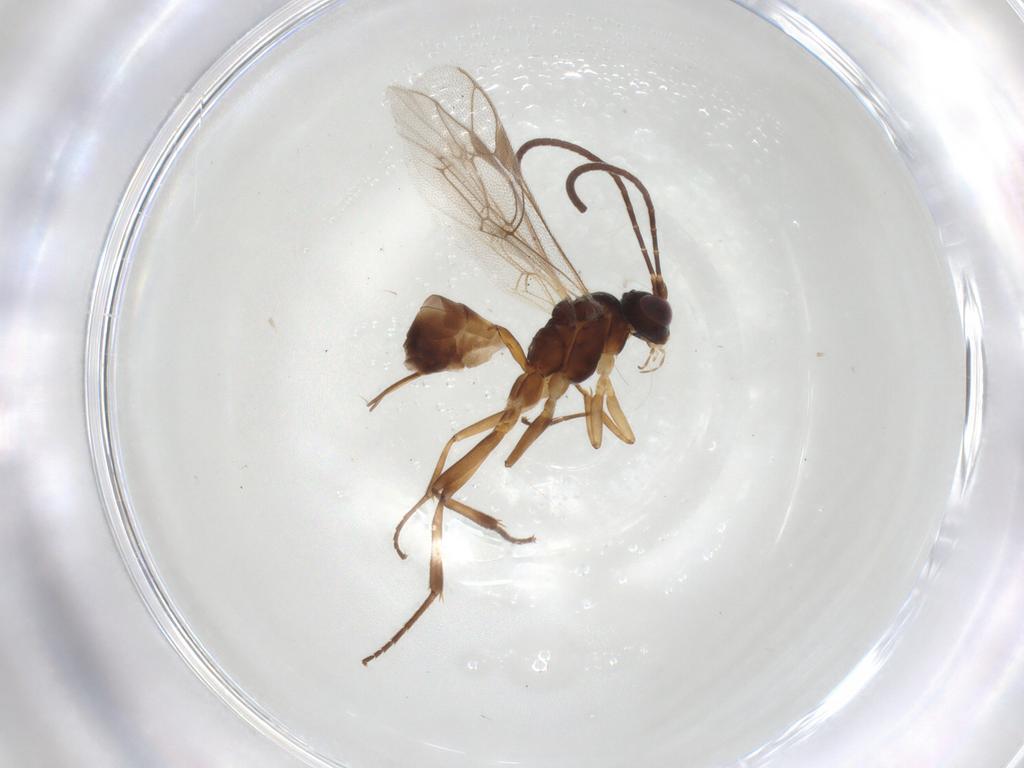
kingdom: Animalia
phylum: Arthropoda
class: Insecta
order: Hymenoptera
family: Ichneumonidae
